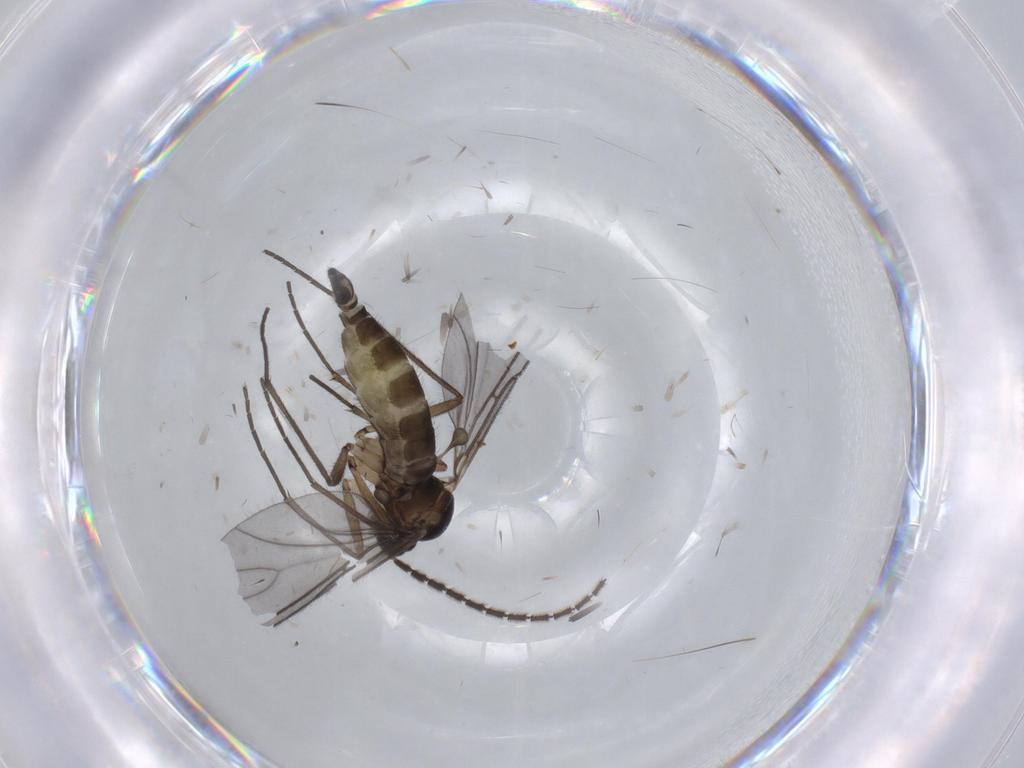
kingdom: Animalia
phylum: Arthropoda
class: Insecta
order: Diptera
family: Sciaridae
